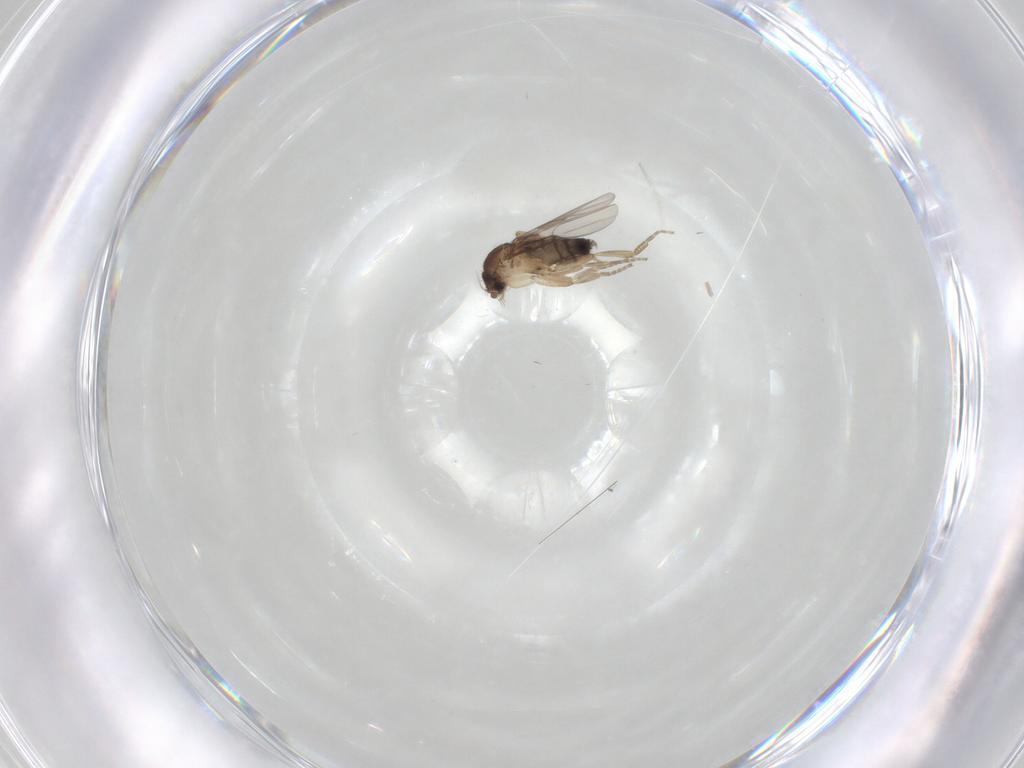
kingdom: Animalia
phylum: Arthropoda
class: Insecta
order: Diptera
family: Phoridae
